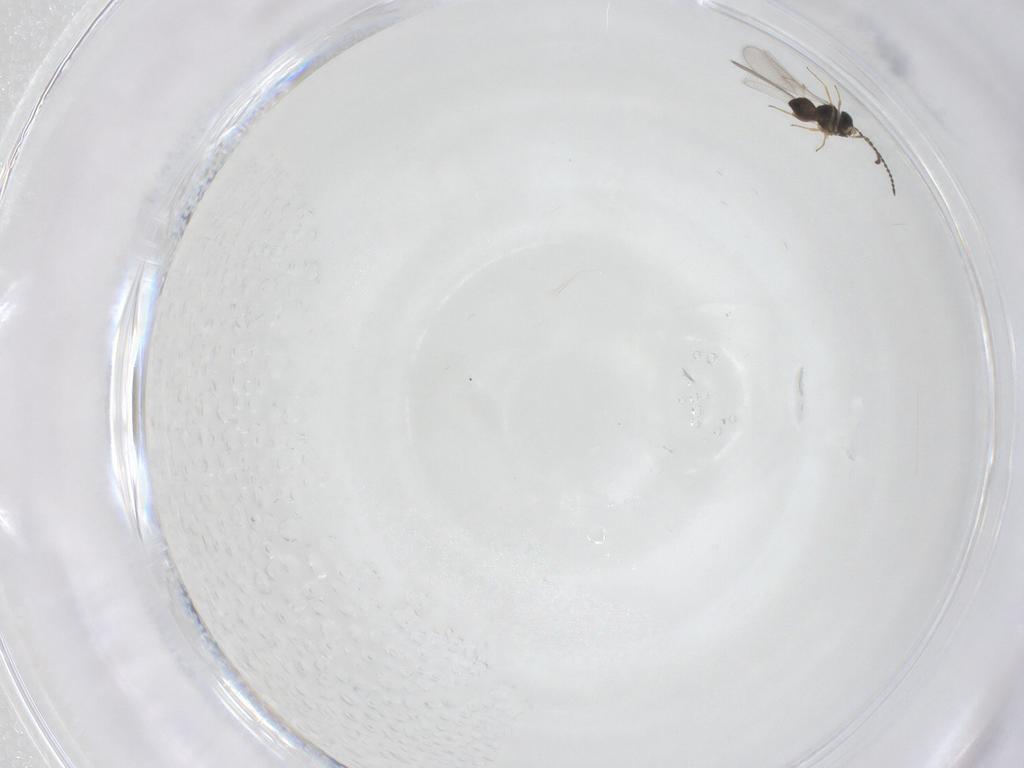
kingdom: Animalia
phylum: Arthropoda
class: Insecta
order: Hymenoptera
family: Scelionidae
